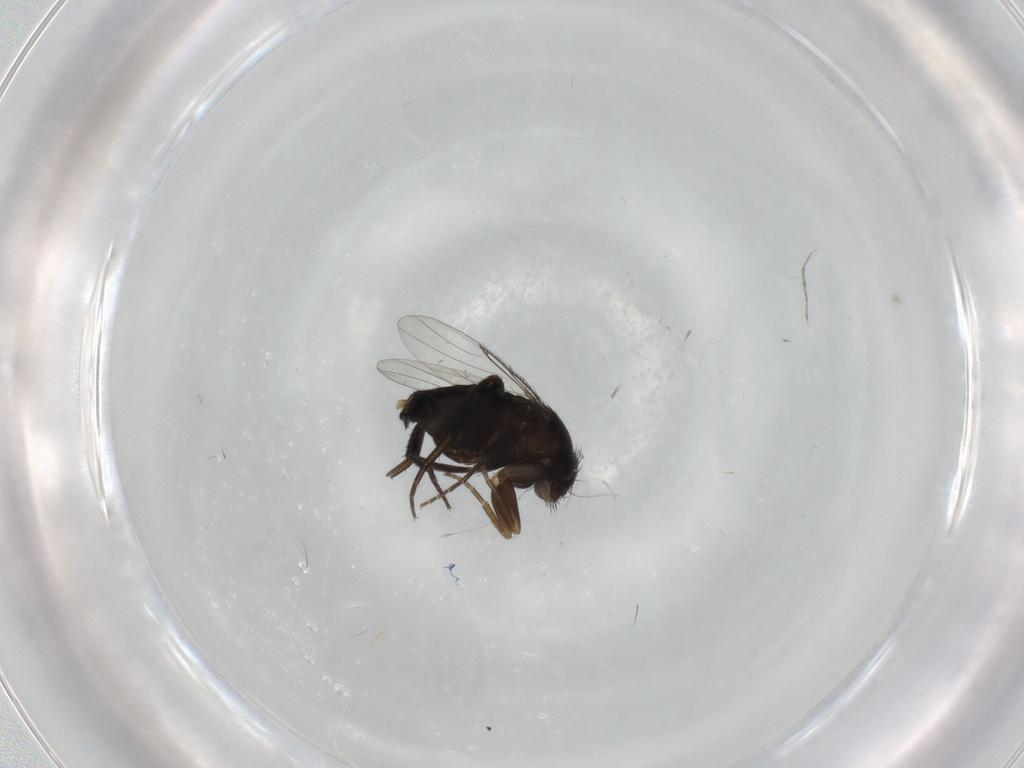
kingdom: Animalia
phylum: Arthropoda
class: Insecta
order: Diptera
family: Phoridae
